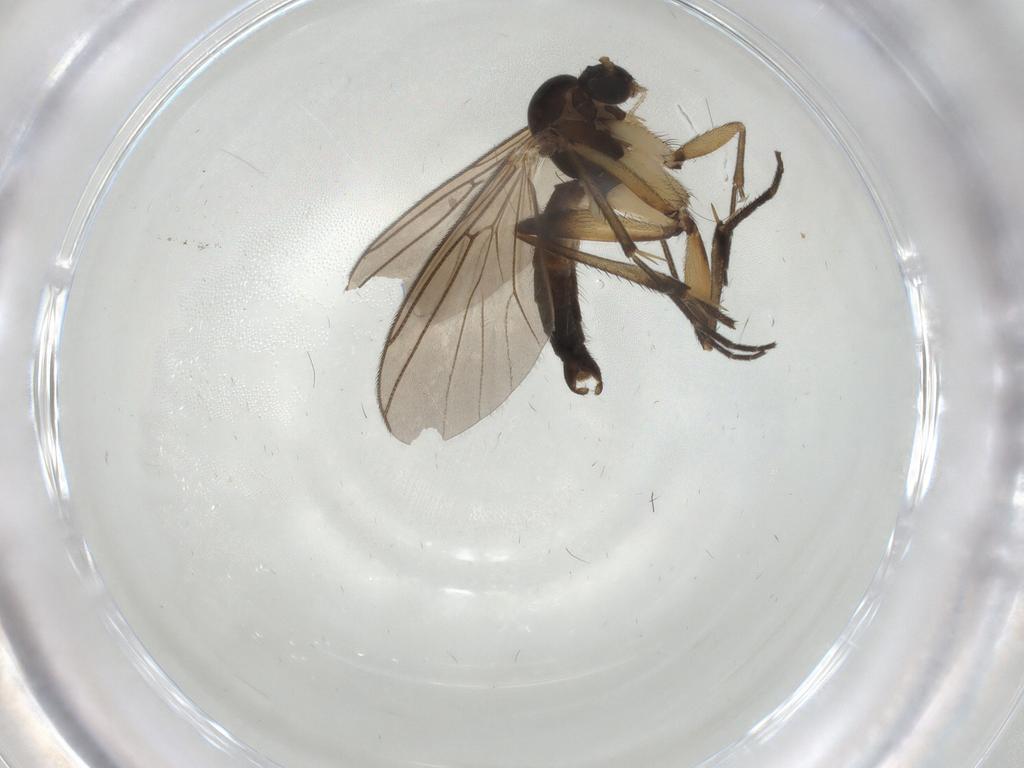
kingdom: Animalia
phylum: Arthropoda
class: Insecta
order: Diptera
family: Mycetophilidae
